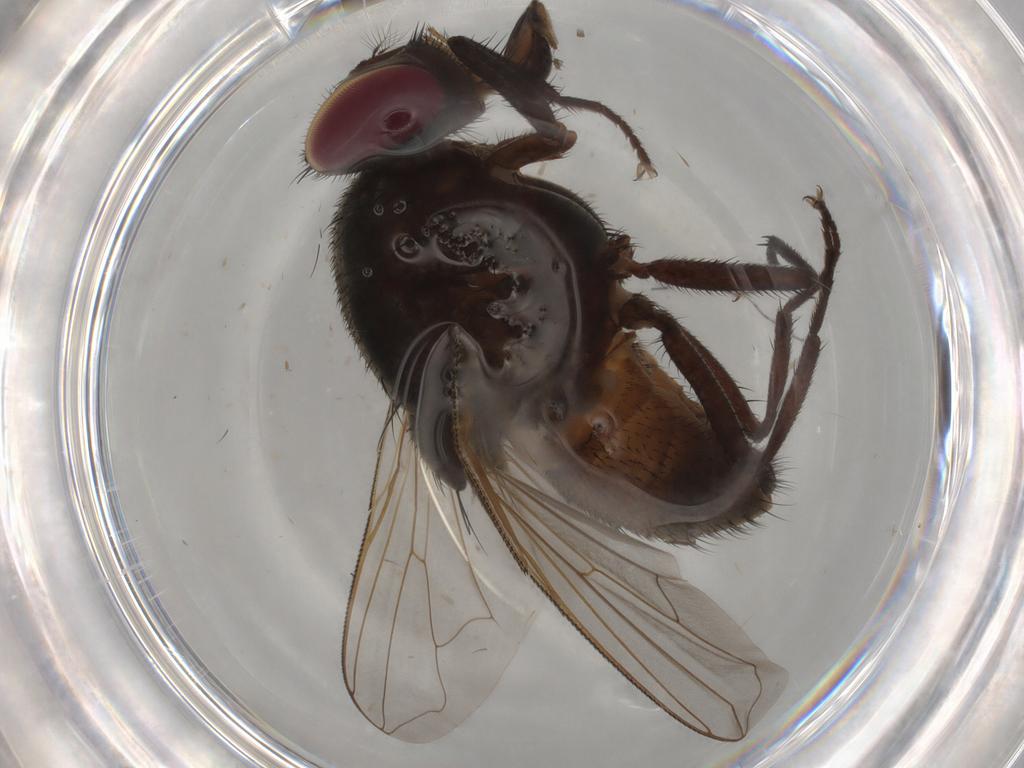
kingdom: Animalia
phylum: Arthropoda
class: Insecta
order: Diptera
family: Muscidae
